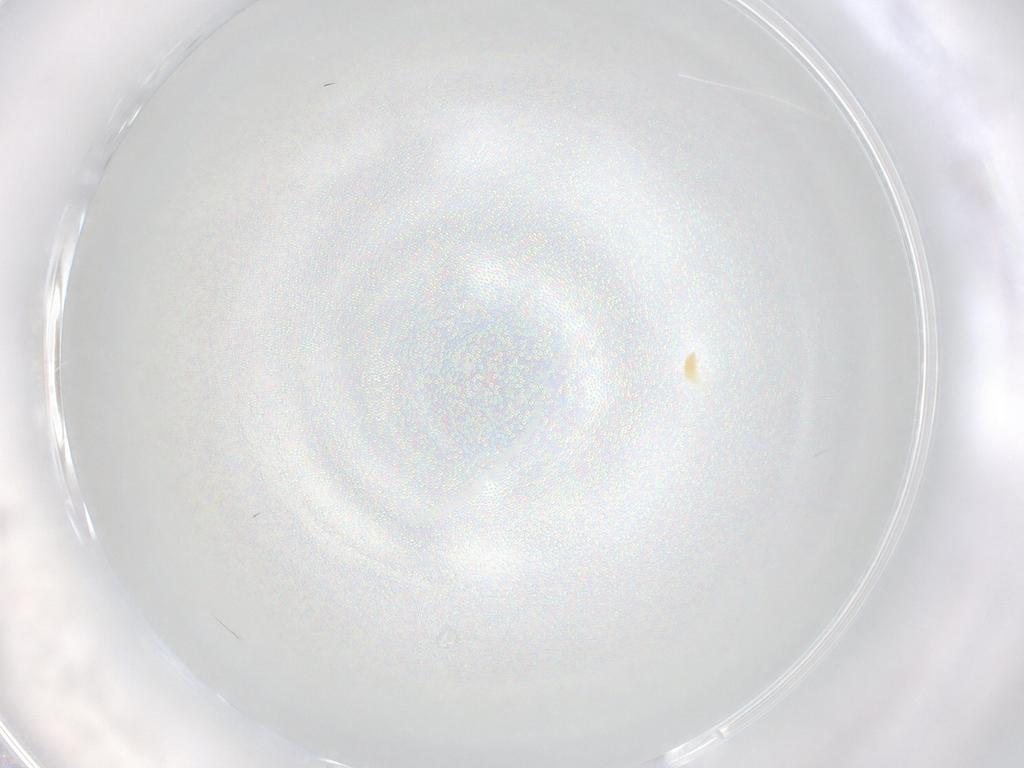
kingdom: Animalia
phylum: Arthropoda
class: Arachnida
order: Trombidiformes
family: Tetranychidae
